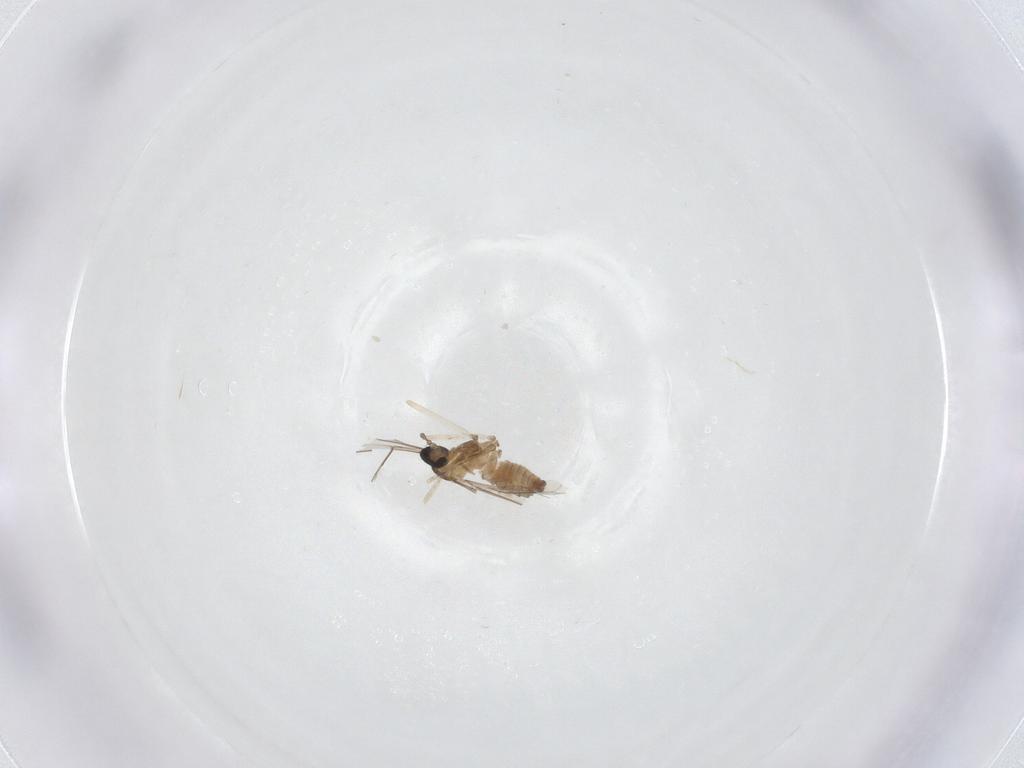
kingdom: Animalia
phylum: Arthropoda
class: Insecta
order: Diptera
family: Cecidomyiidae
